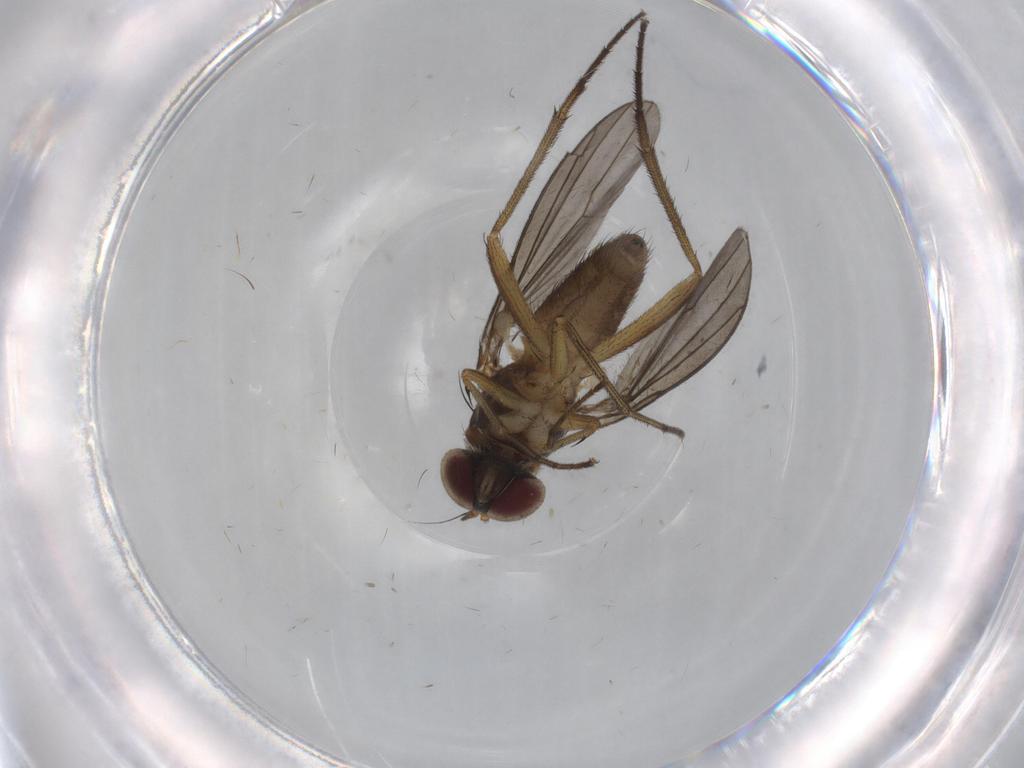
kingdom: Animalia
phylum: Arthropoda
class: Insecta
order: Diptera
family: Dolichopodidae
